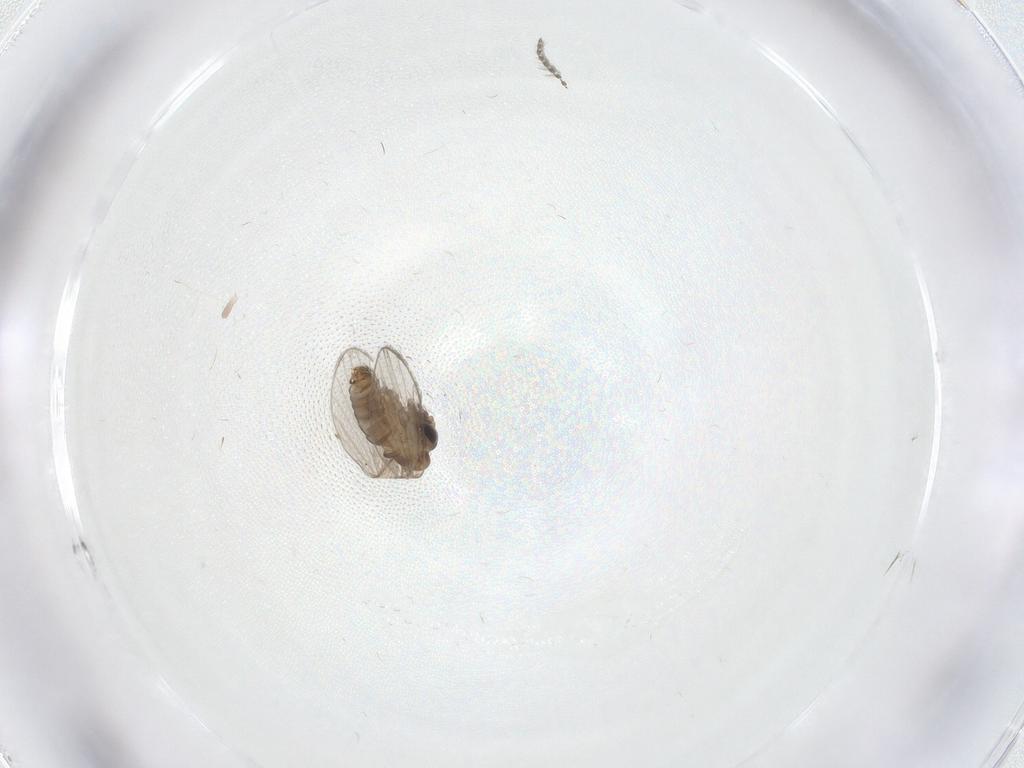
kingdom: Animalia
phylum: Arthropoda
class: Insecta
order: Diptera
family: Psychodidae
